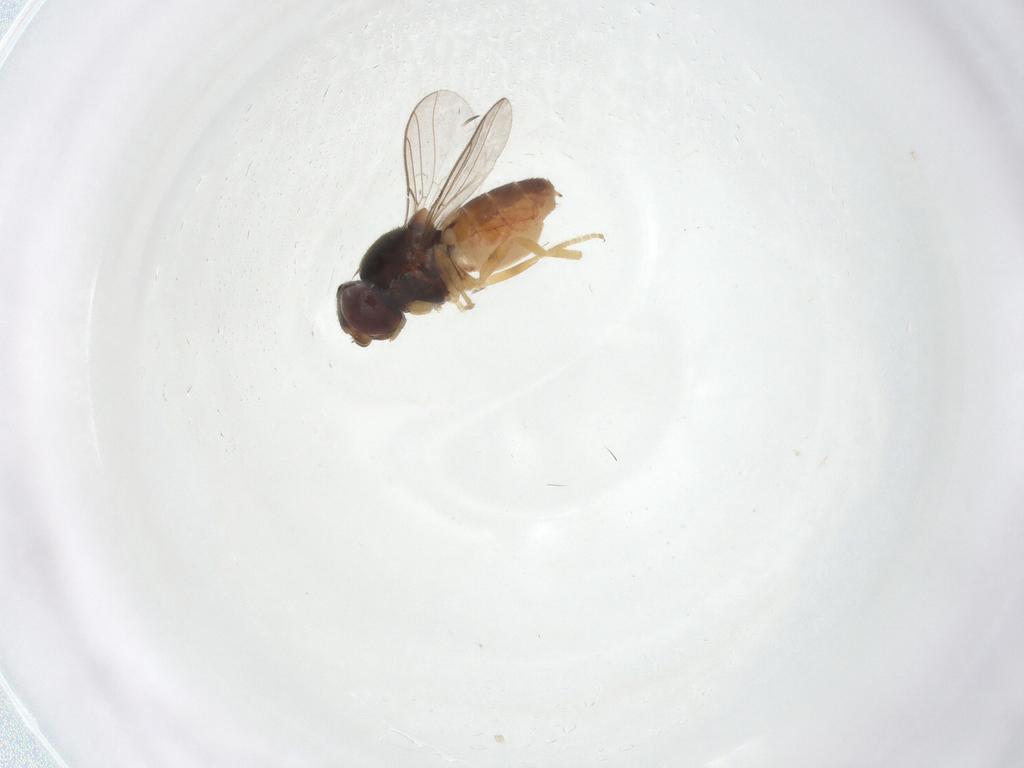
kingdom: Animalia
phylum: Arthropoda
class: Insecta
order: Diptera
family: Chloropidae
